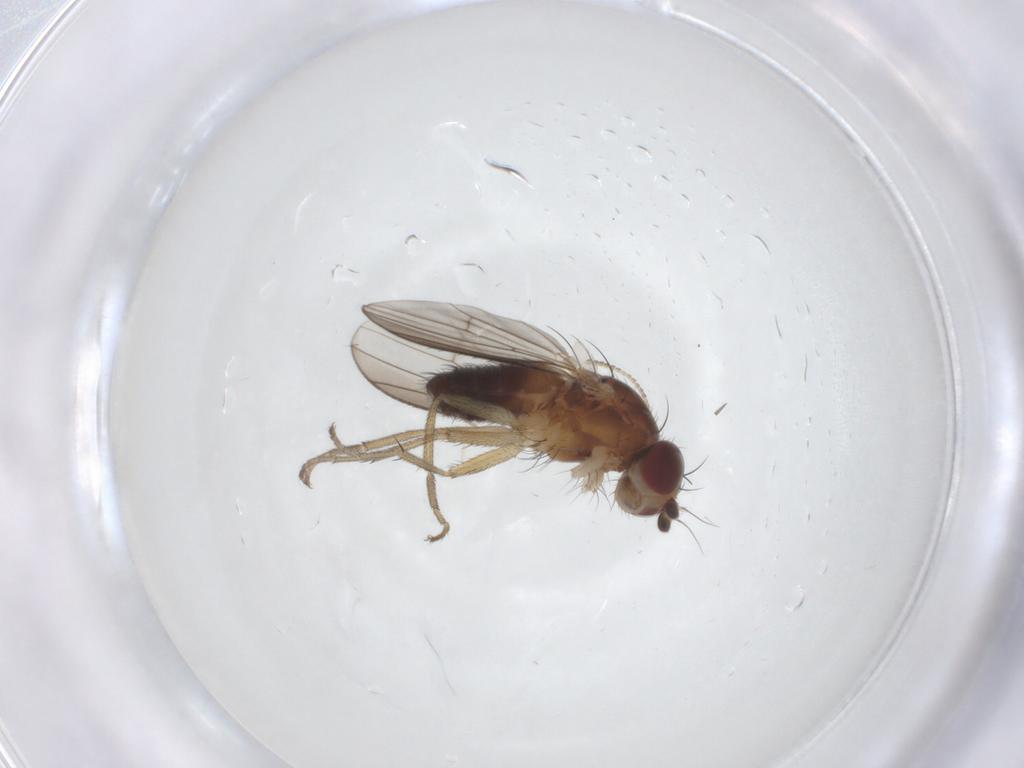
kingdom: Animalia
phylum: Arthropoda
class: Insecta
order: Diptera
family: Heleomyzidae
